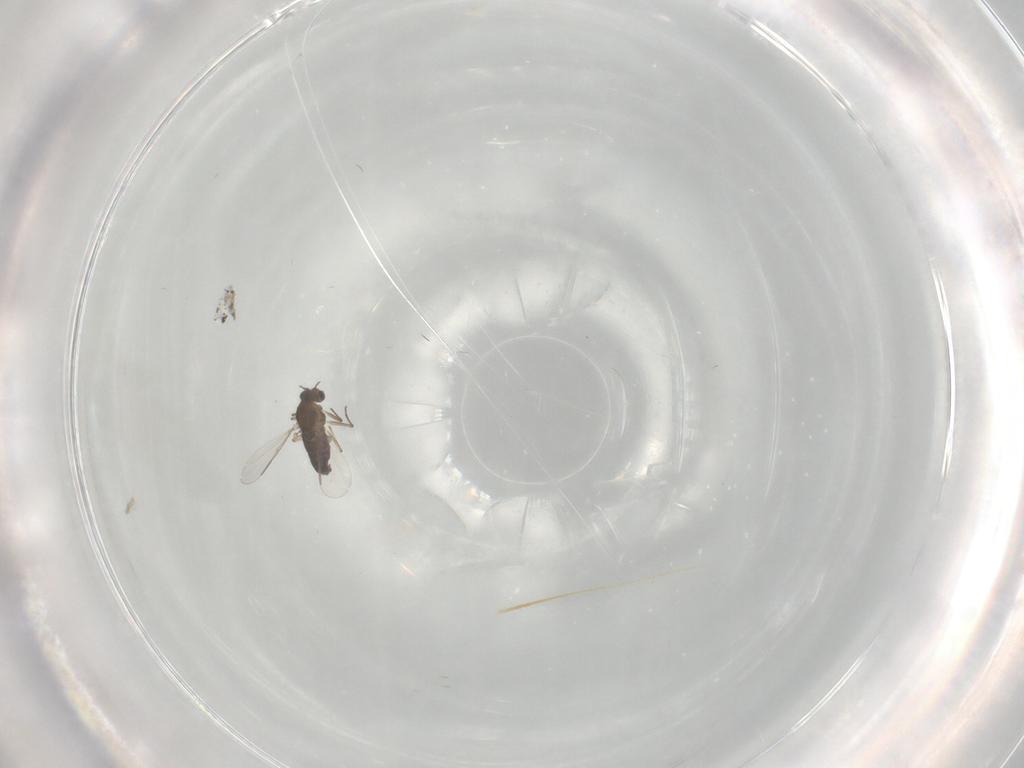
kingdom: Animalia
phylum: Arthropoda
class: Insecta
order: Diptera
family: Chironomidae
